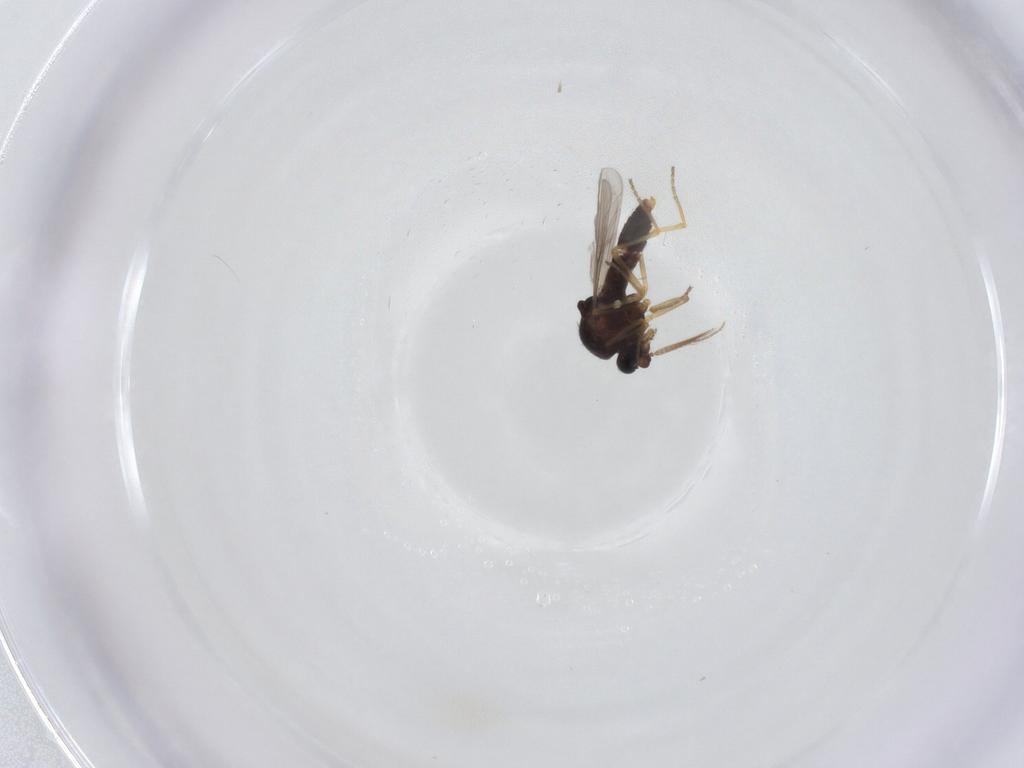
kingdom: Animalia
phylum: Arthropoda
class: Insecta
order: Diptera
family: Ceratopogonidae
